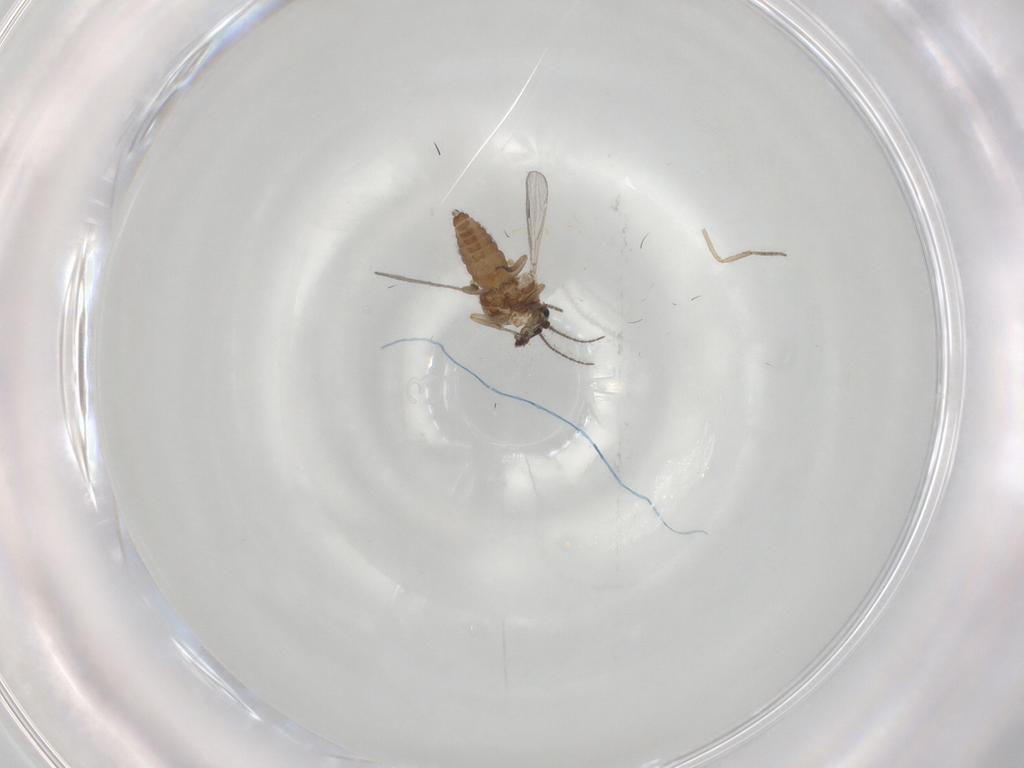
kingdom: Animalia
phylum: Arthropoda
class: Insecta
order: Diptera
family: Ceratopogonidae
